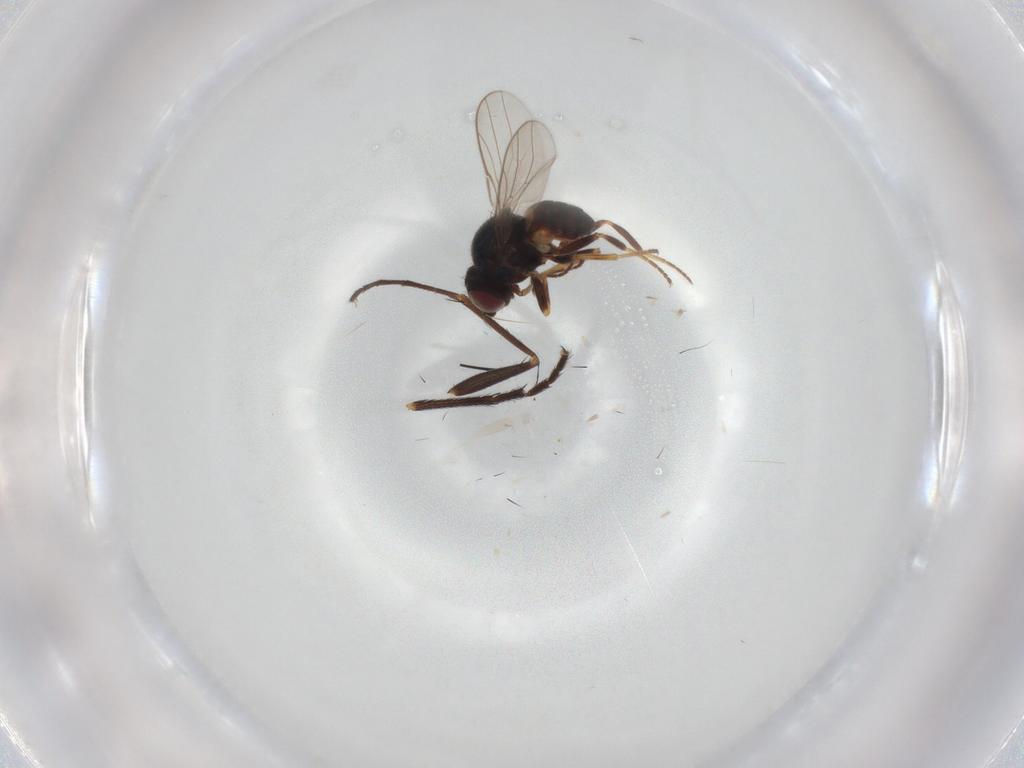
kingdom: Animalia
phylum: Arthropoda
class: Insecta
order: Diptera
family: Milichiidae
